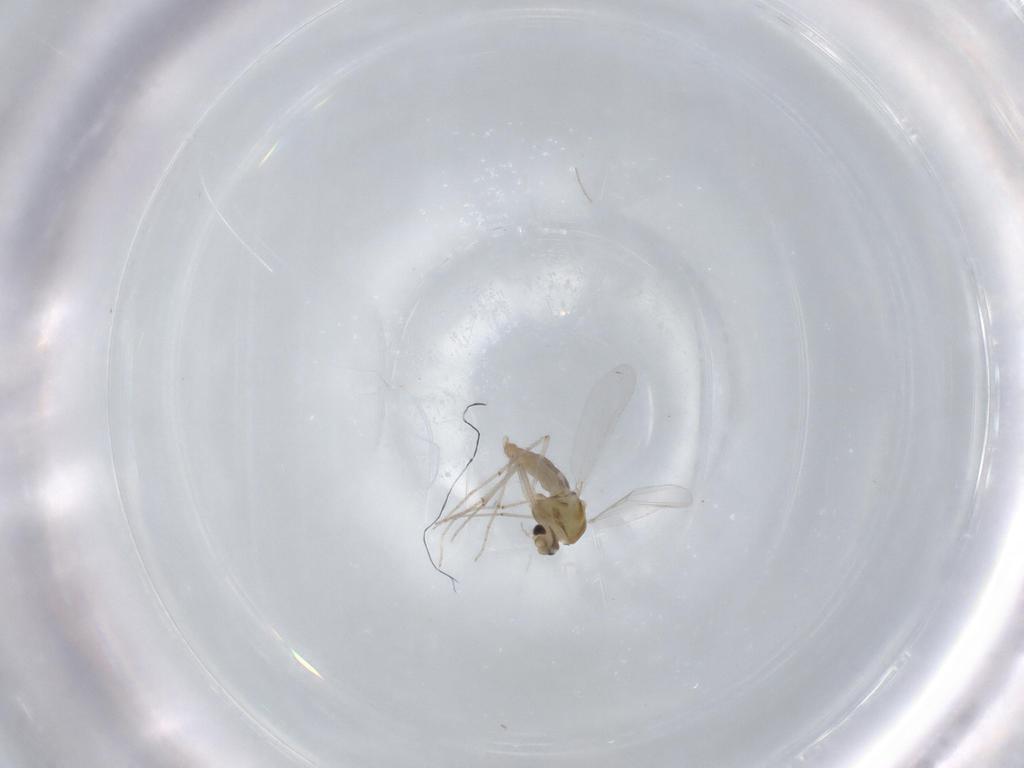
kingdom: Animalia
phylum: Arthropoda
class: Insecta
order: Diptera
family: Chironomidae
